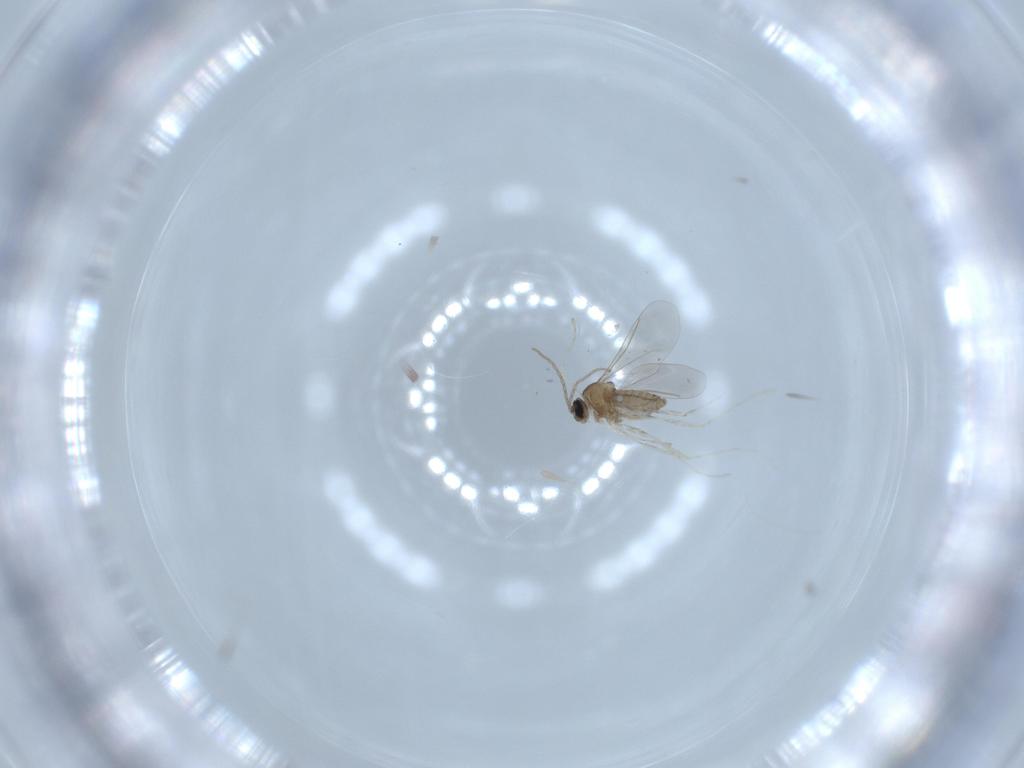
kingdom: Animalia
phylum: Arthropoda
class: Insecta
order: Diptera
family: Cecidomyiidae
